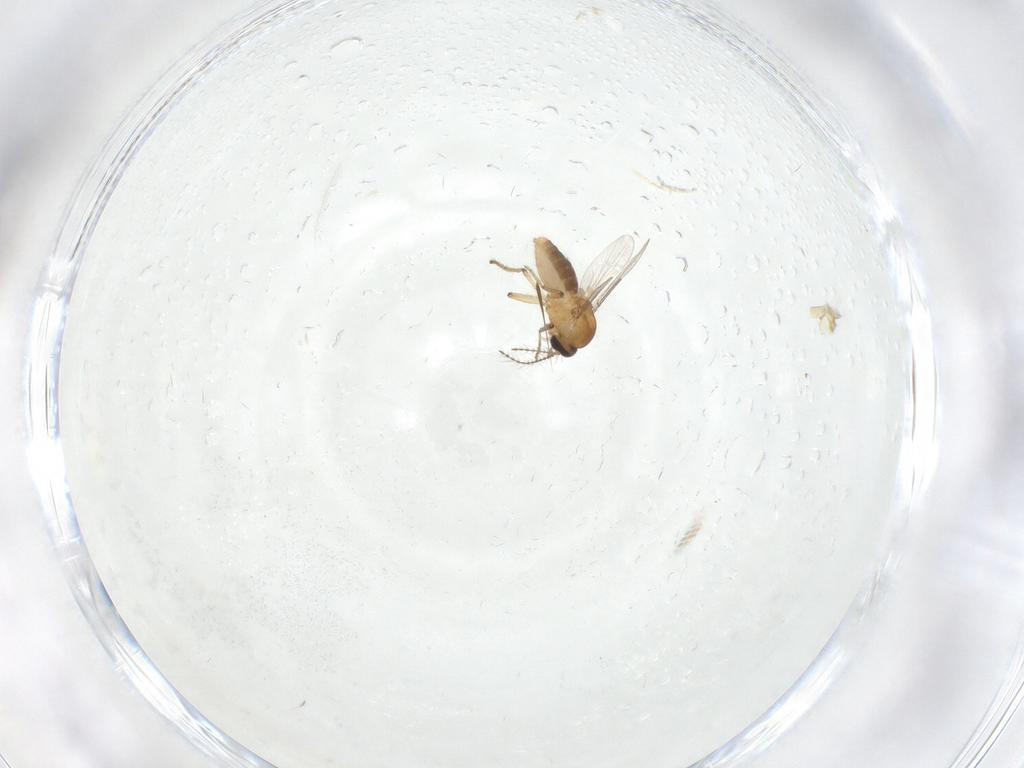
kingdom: Animalia
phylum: Arthropoda
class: Insecta
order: Diptera
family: Ceratopogonidae
